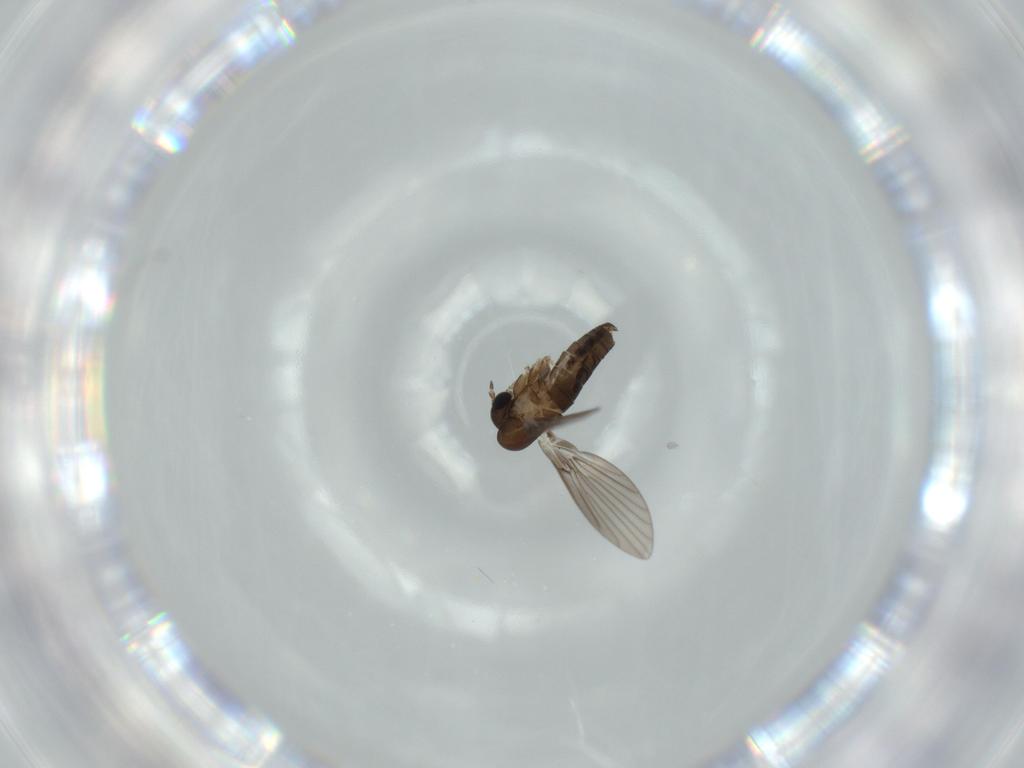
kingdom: Animalia
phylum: Arthropoda
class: Insecta
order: Diptera
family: Psychodidae
